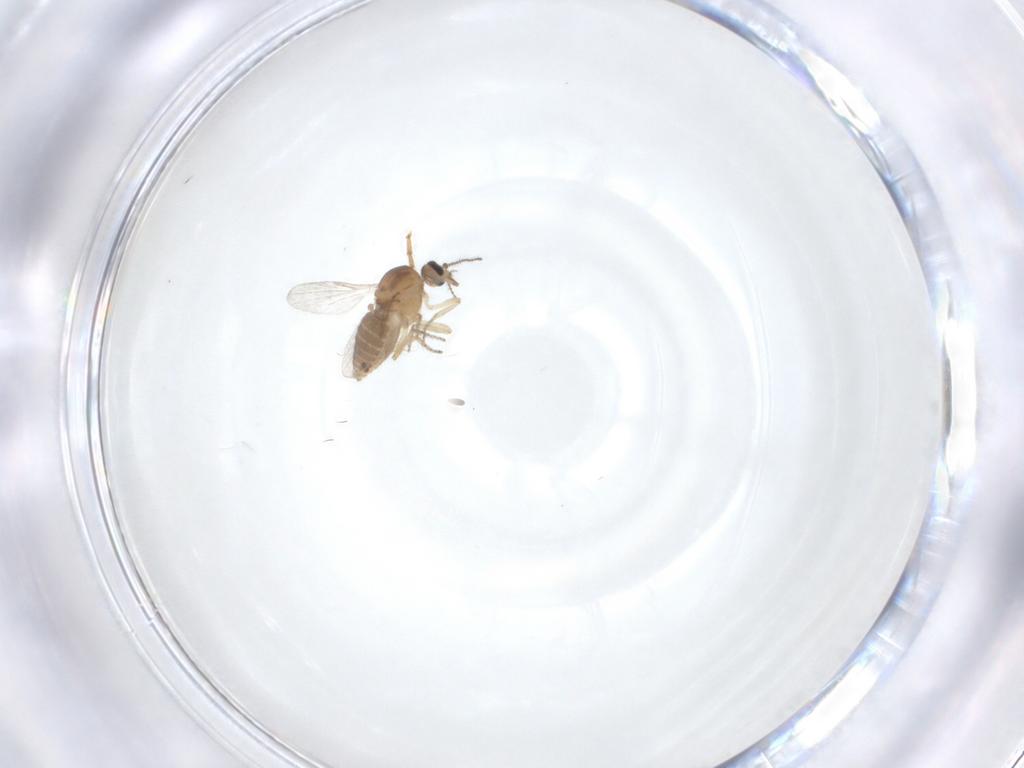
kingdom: Animalia
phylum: Arthropoda
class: Insecta
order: Diptera
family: Ceratopogonidae
